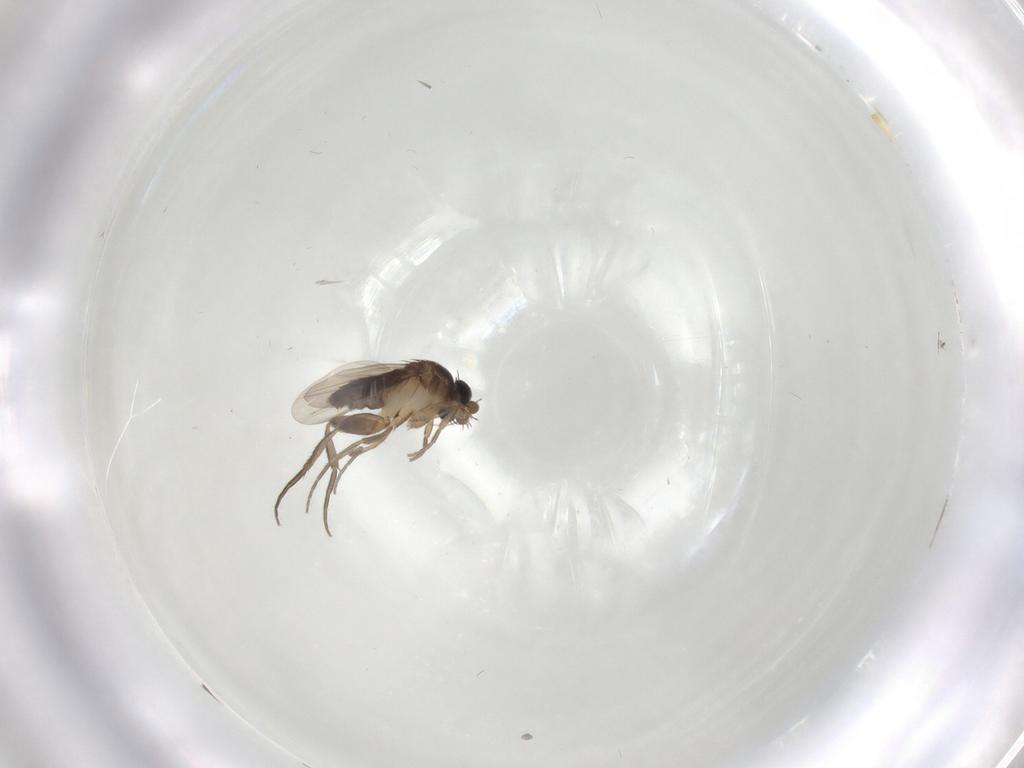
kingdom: Animalia
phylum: Arthropoda
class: Insecta
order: Diptera
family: Phoridae
